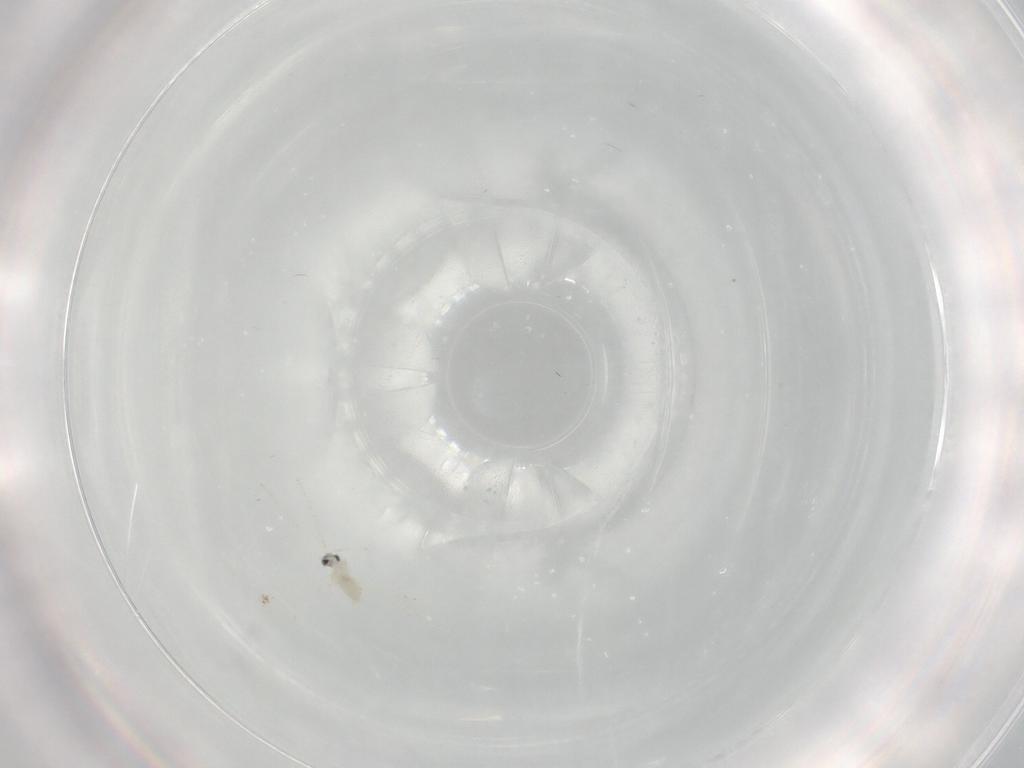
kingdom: Animalia
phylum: Arthropoda
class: Insecta
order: Diptera
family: Cecidomyiidae
